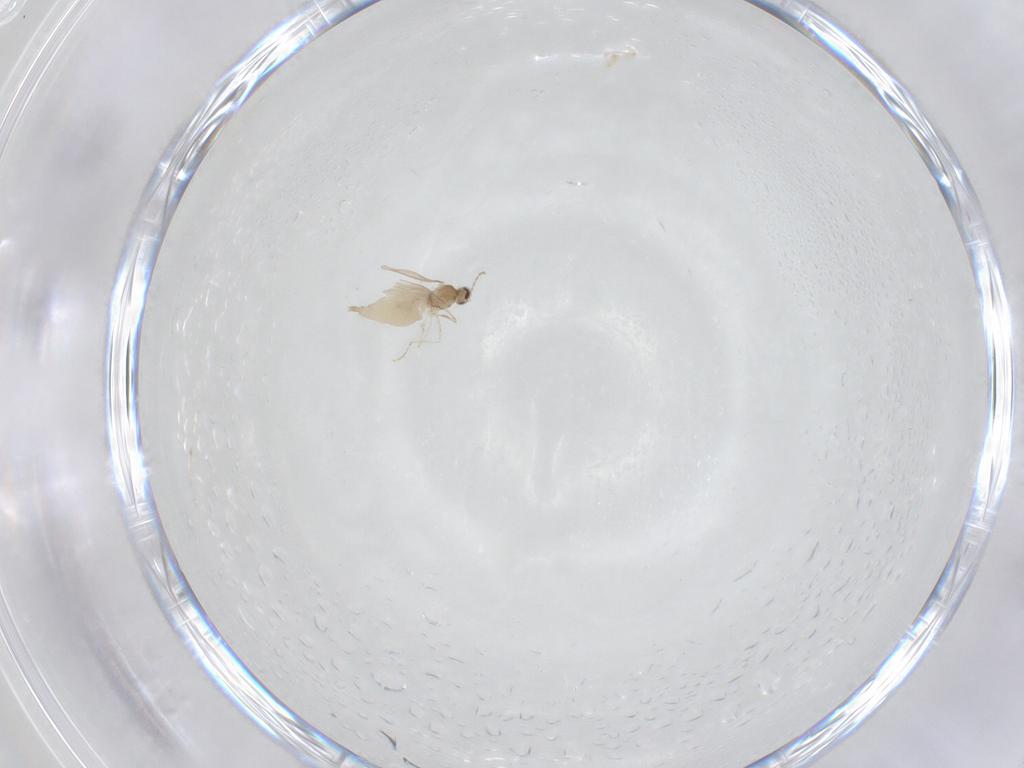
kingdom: Animalia
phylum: Arthropoda
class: Insecta
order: Diptera
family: Cecidomyiidae
